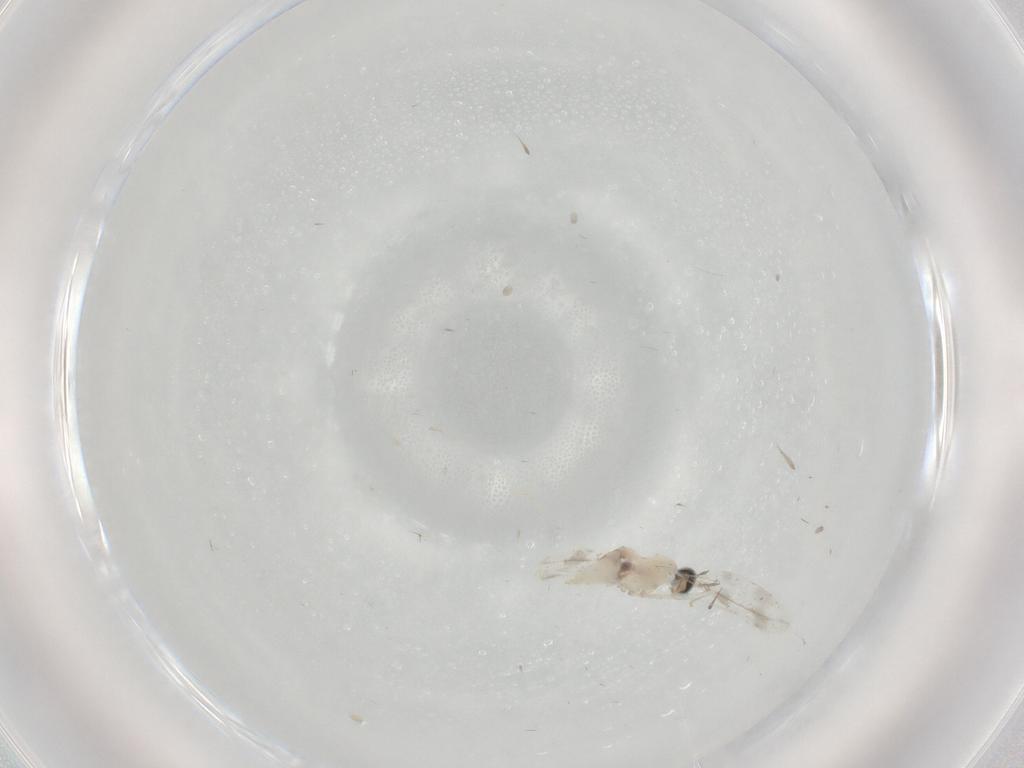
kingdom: Animalia
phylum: Arthropoda
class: Insecta
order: Diptera
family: Cecidomyiidae
